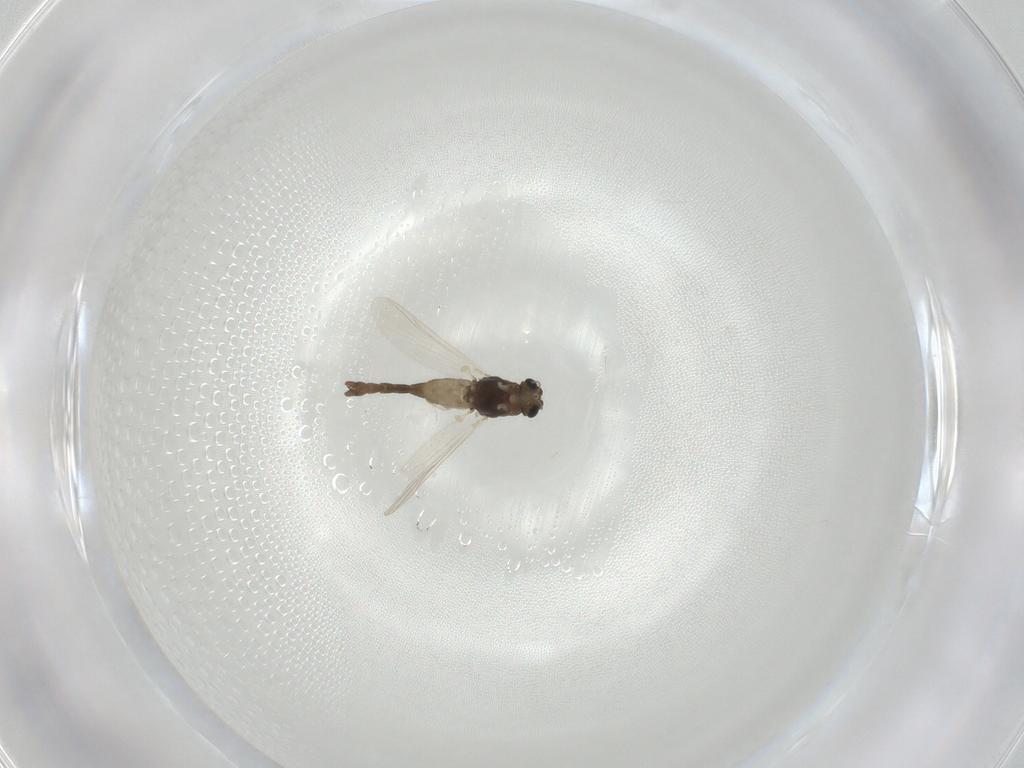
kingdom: Animalia
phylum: Arthropoda
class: Insecta
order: Diptera
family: Chironomidae
